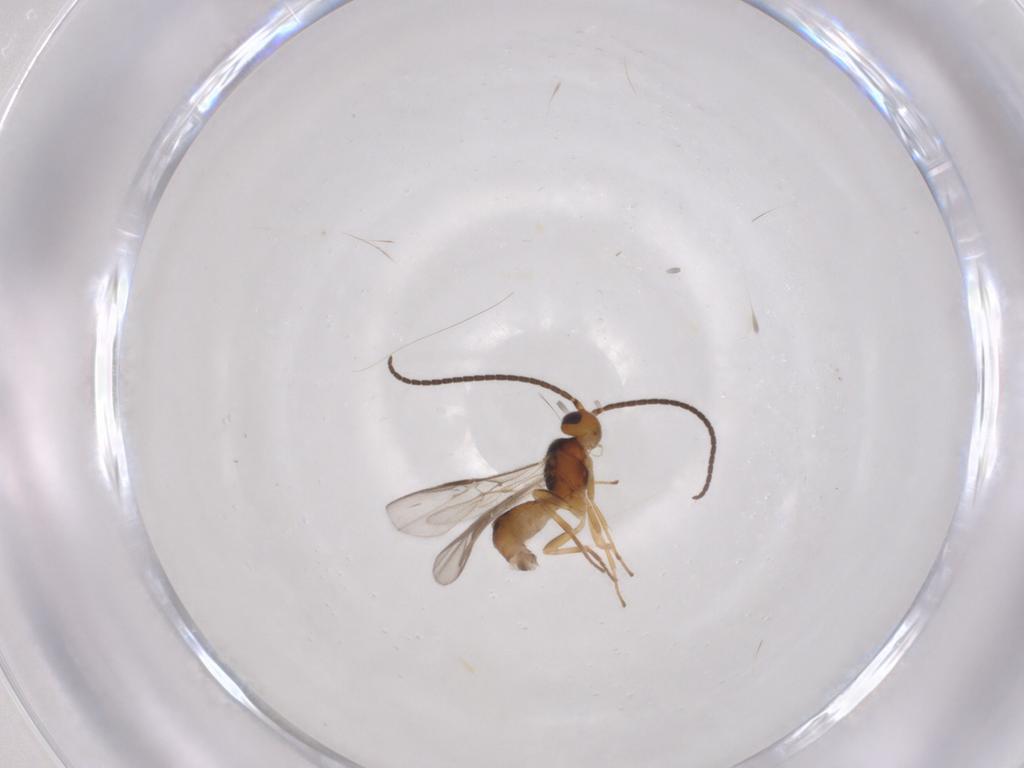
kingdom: Animalia
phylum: Arthropoda
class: Insecta
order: Hymenoptera
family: Braconidae
